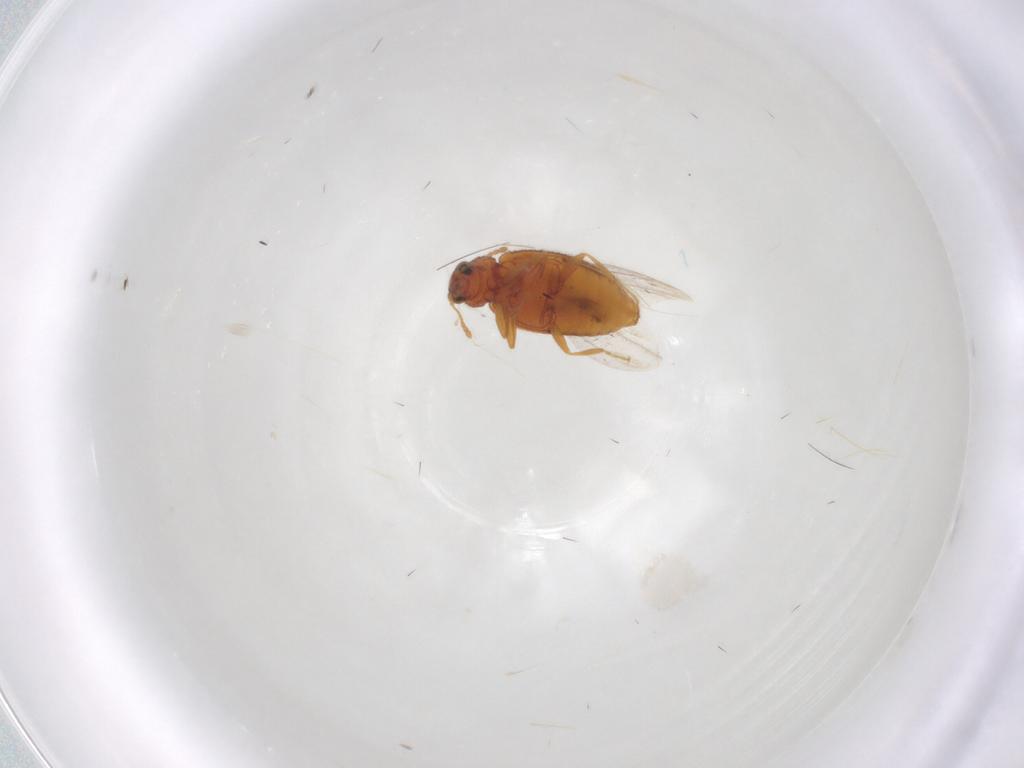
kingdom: Animalia
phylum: Arthropoda
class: Insecta
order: Coleoptera
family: Latridiidae
